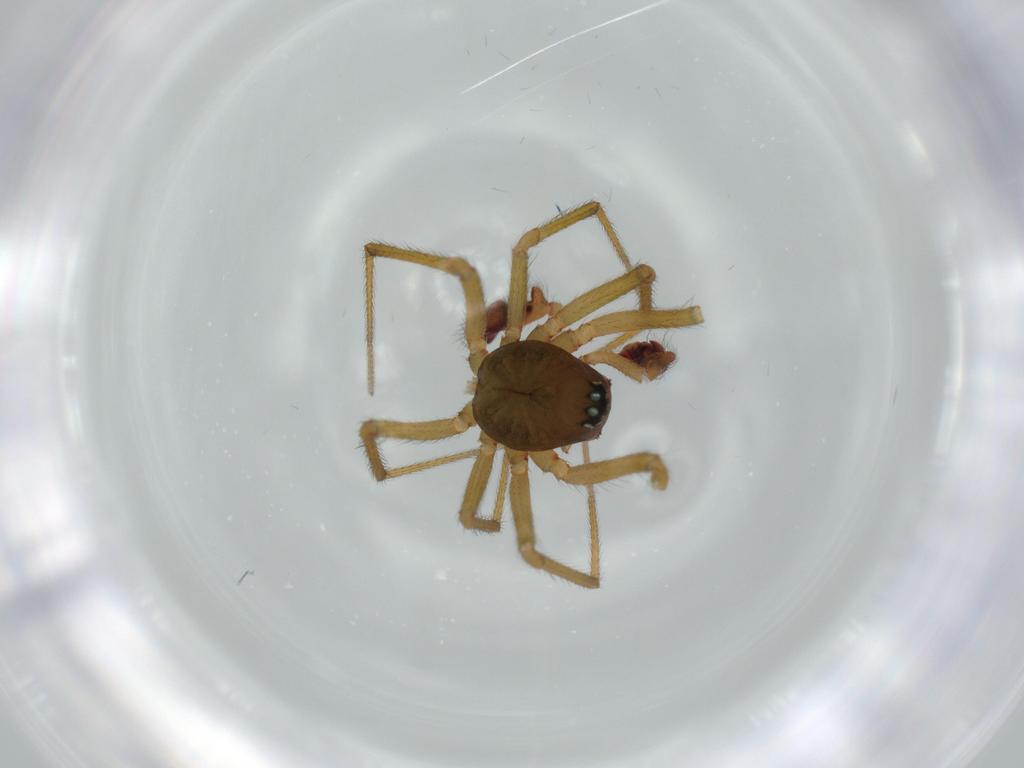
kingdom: Animalia
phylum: Arthropoda
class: Arachnida
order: Araneae
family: Linyphiidae
